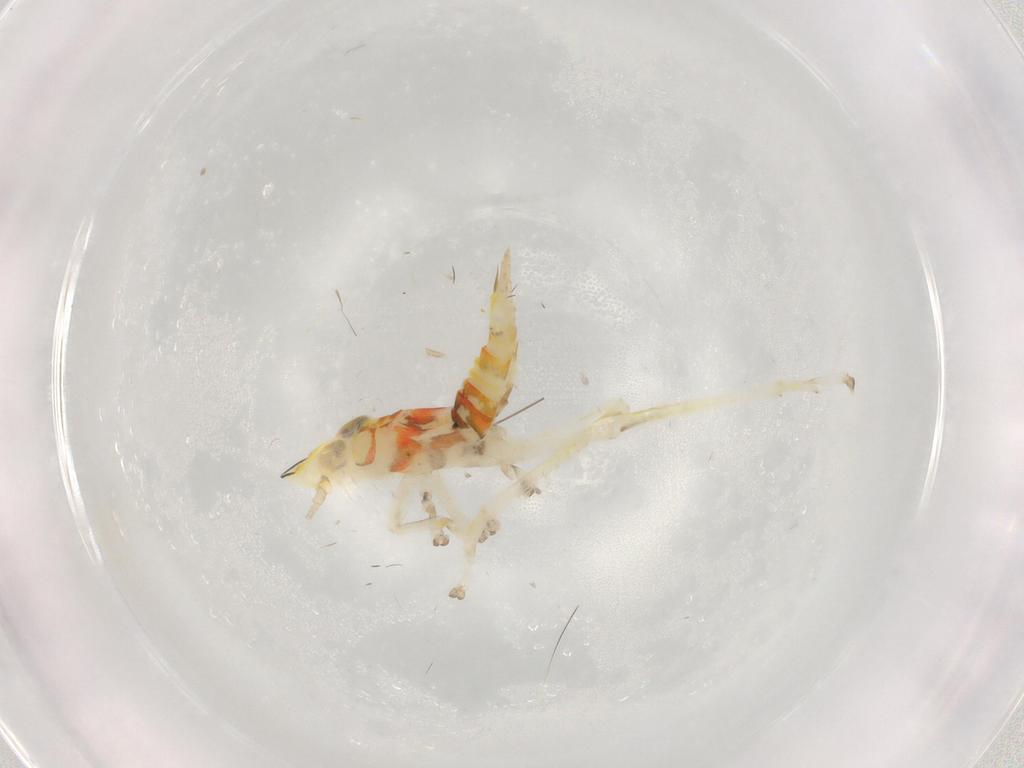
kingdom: Animalia
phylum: Arthropoda
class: Insecta
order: Hemiptera
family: Cicadellidae
